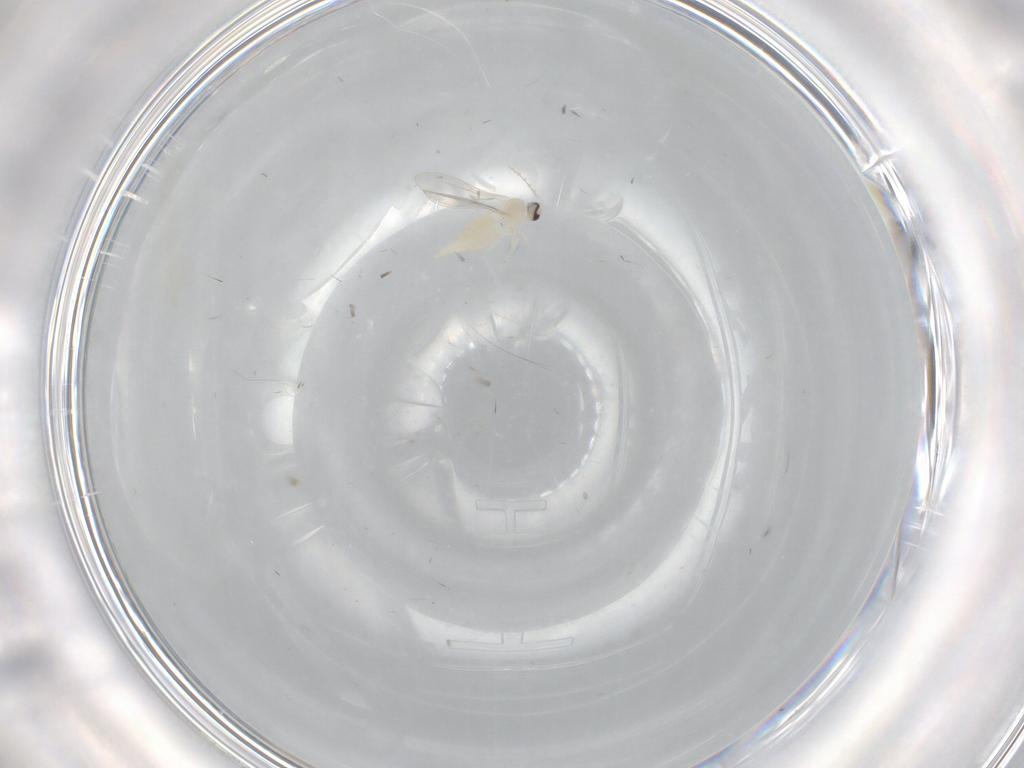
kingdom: Animalia
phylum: Arthropoda
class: Insecta
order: Diptera
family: Cecidomyiidae
